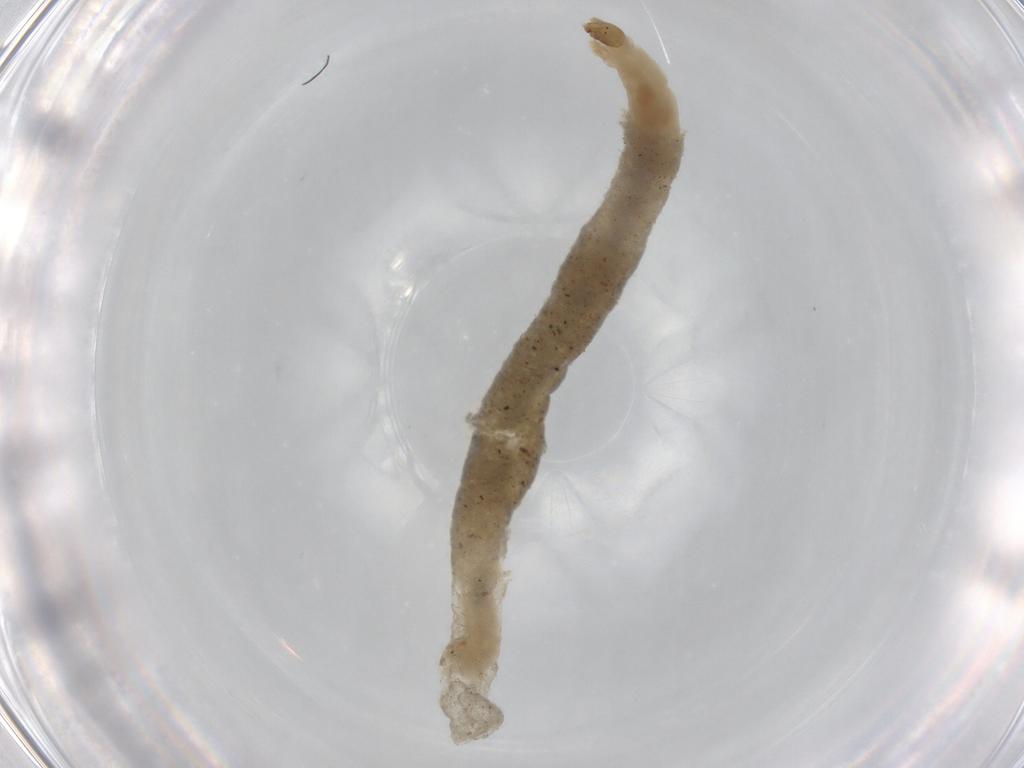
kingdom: Animalia
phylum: Arthropoda
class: Insecta
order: Diptera
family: Chironomidae
